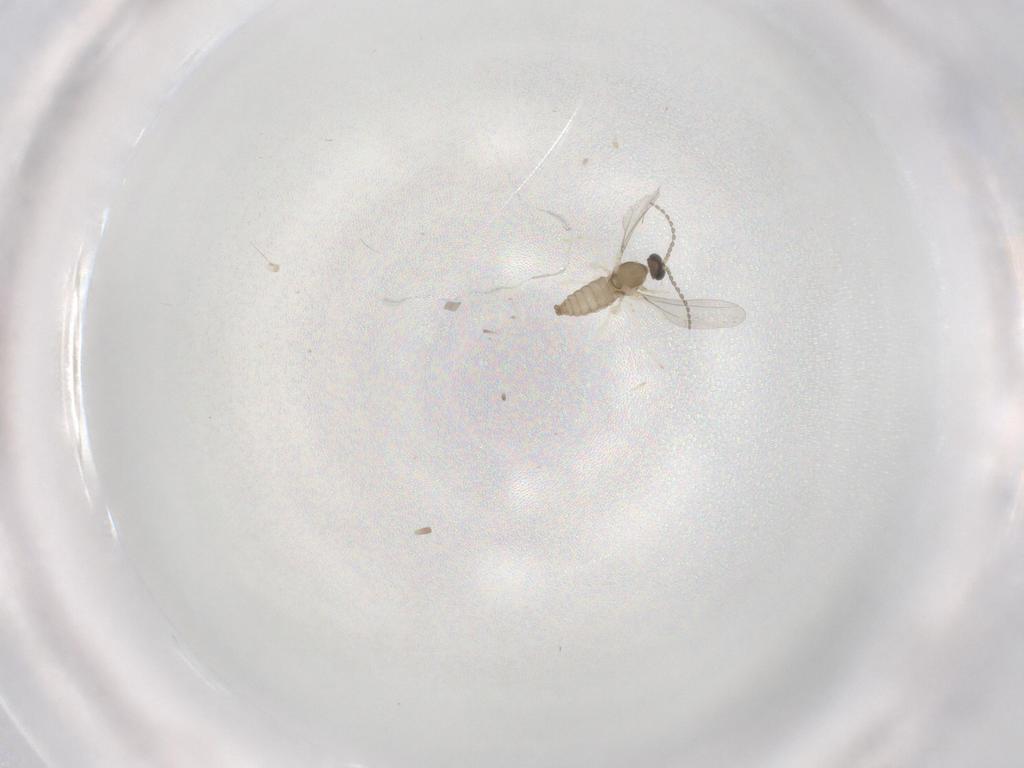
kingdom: Animalia
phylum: Arthropoda
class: Insecta
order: Diptera
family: Cecidomyiidae
